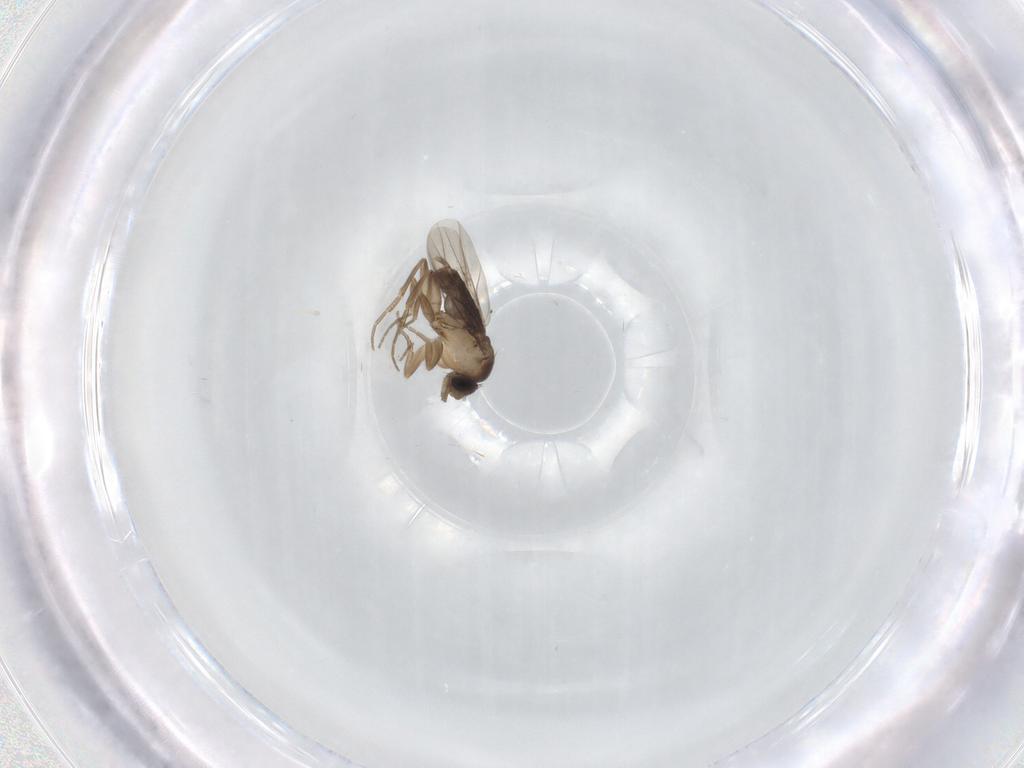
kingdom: Animalia
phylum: Arthropoda
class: Insecta
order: Diptera
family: Phoridae
